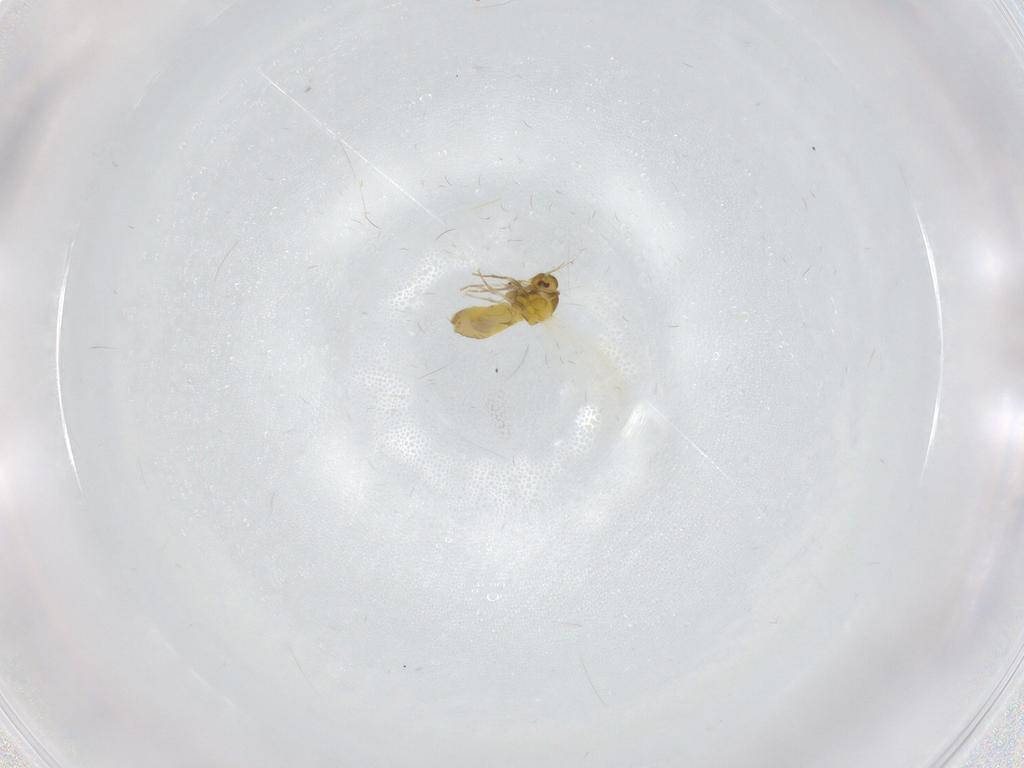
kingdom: Animalia
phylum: Arthropoda
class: Insecta
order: Hemiptera
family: Aleyrodidae
